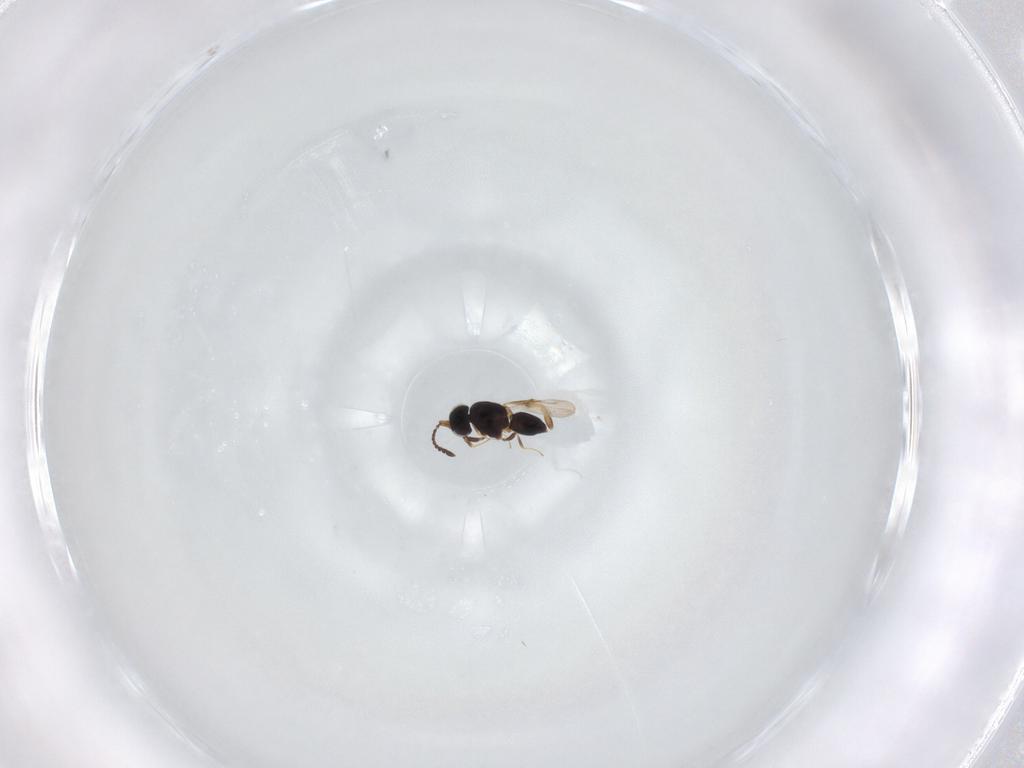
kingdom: Animalia
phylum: Arthropoda
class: Insecta
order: Hymenoptera
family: Ceraphronidae
